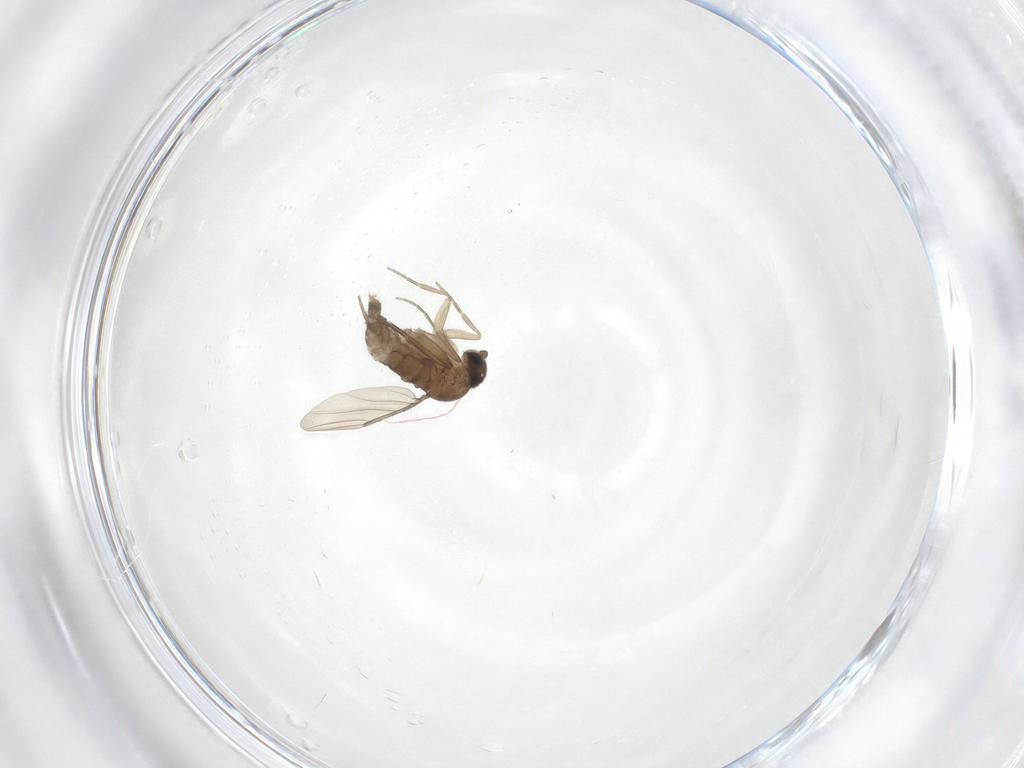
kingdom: Animalia
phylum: Arthropoda
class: Insecta
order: Diptera
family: Phoridae
